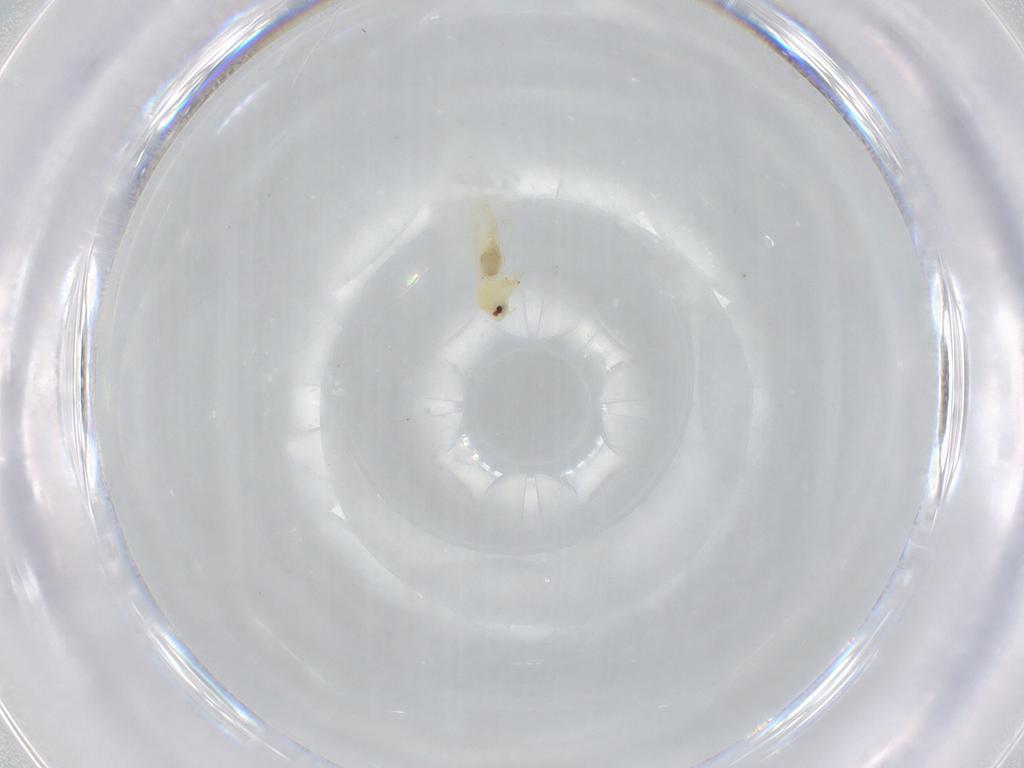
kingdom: Animalia
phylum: Arthropoda
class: Insecta
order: Hemiptera
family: Aleyrodidae
